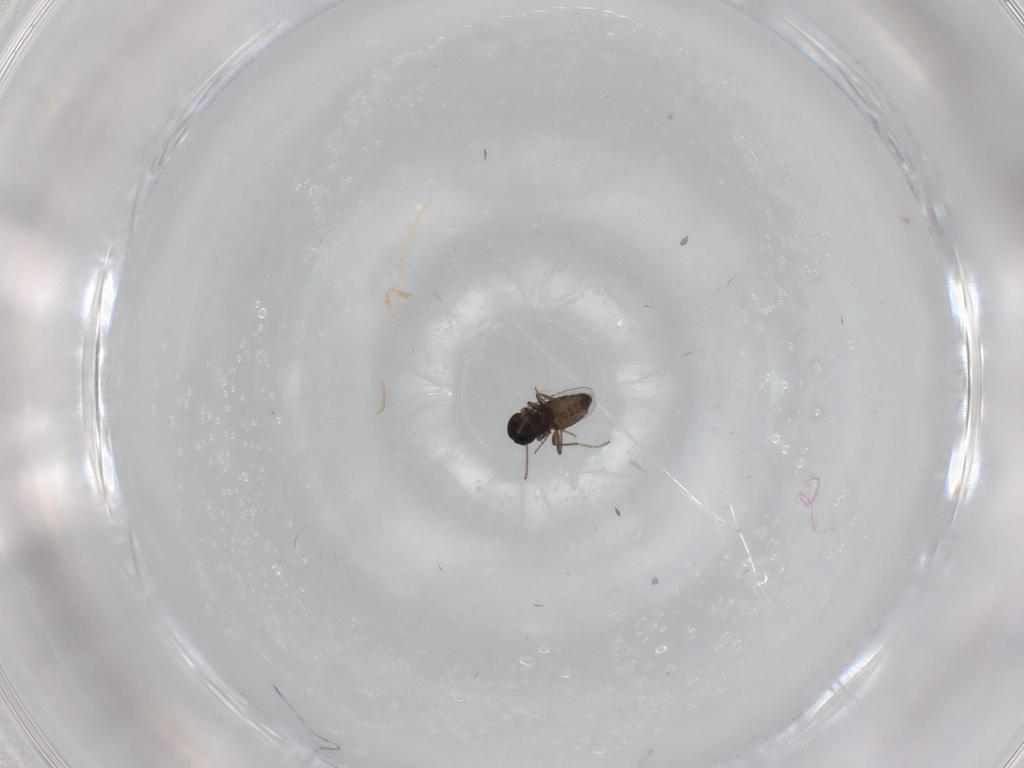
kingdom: Animalia
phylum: Arthropoda
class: Insecta
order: Diptera
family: Ceratopogonidae
